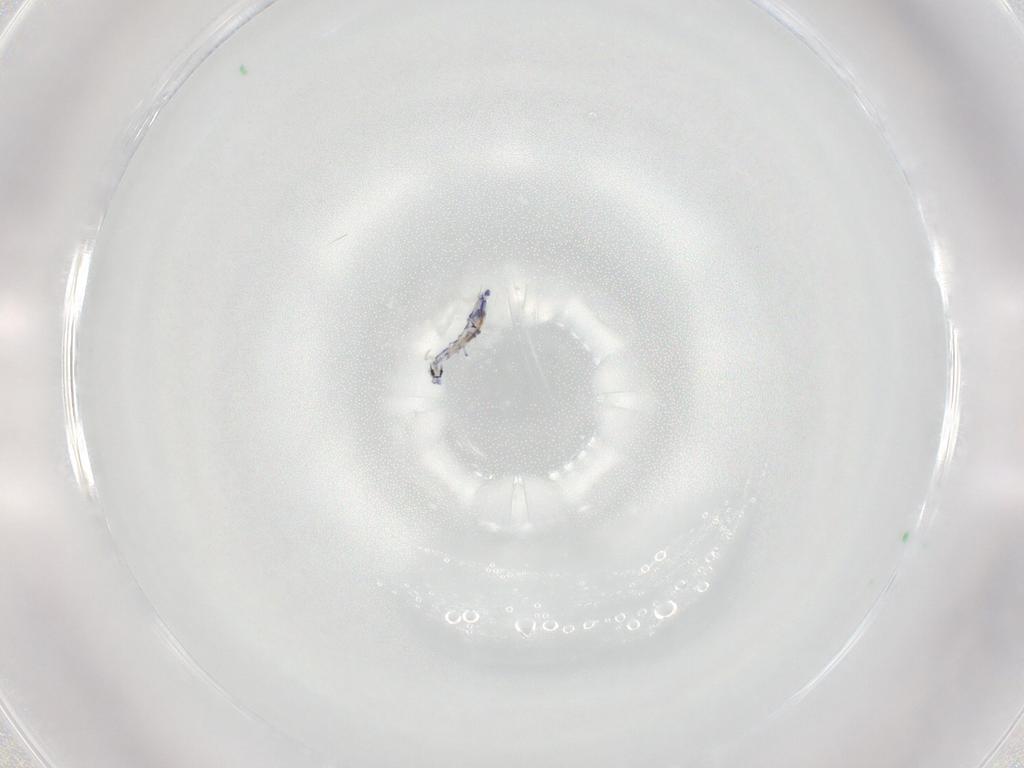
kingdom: Animalia
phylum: Arthropoda
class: Collembola
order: Entomobryomorpha
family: Entomobryidae
